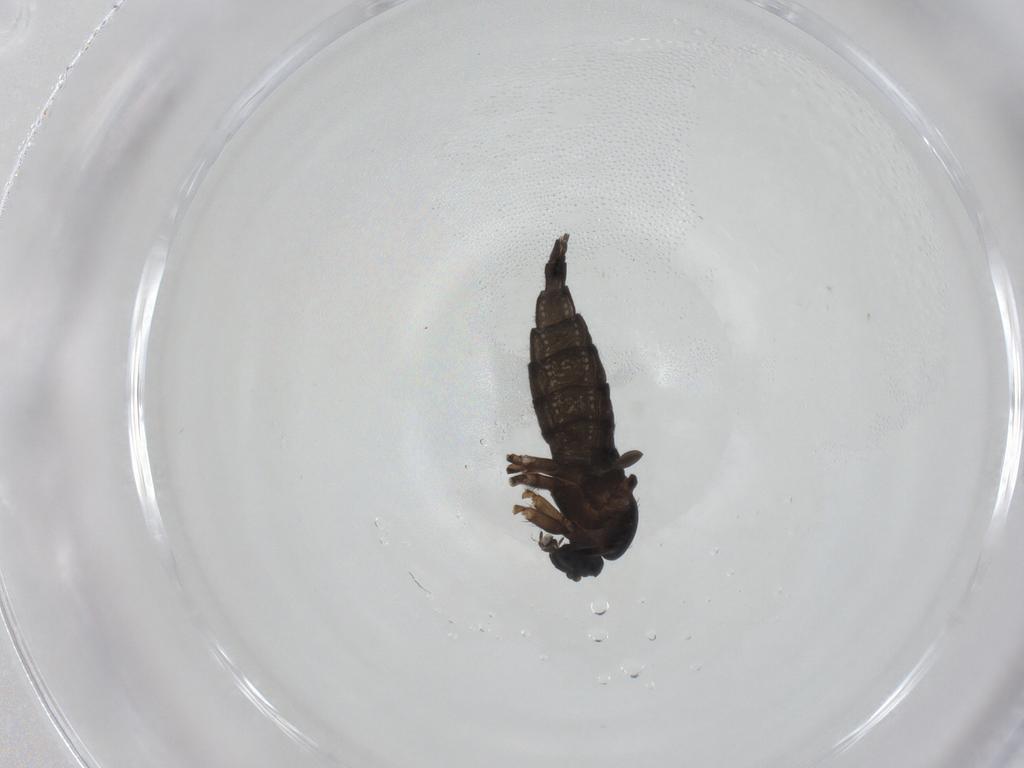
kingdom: Animalia
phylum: Arthropoda
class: Insecta
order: Diptera
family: Sciaridae
